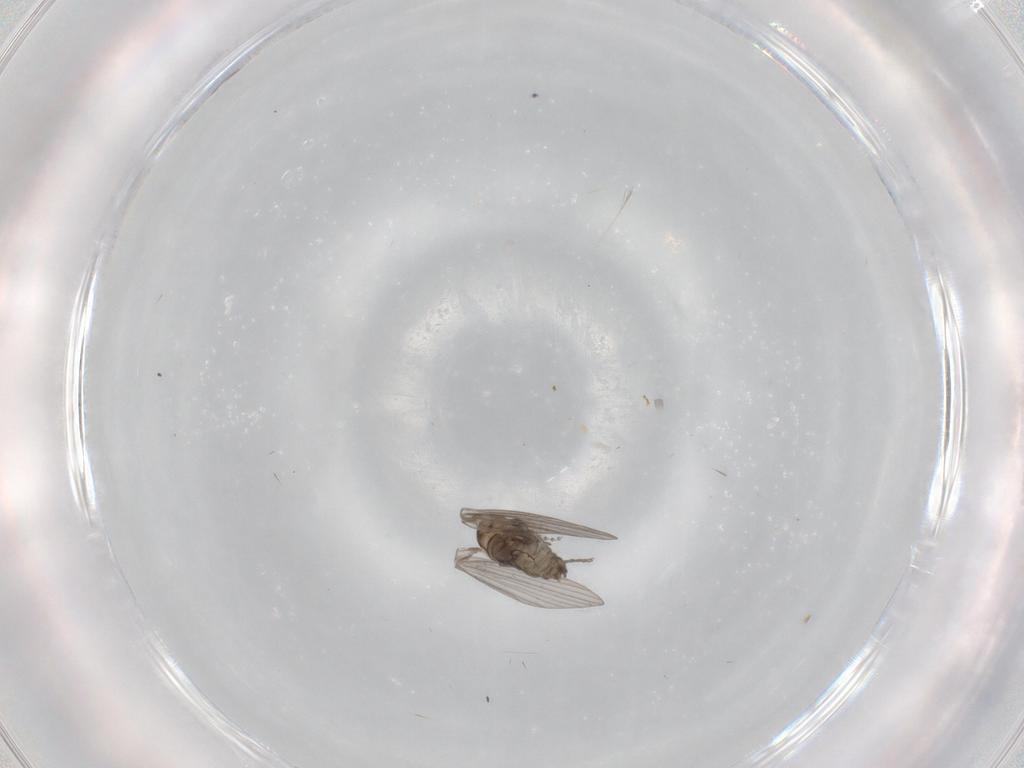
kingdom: Animalia
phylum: Arthropoda
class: Insecta
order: Diptera
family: Psychodidae
